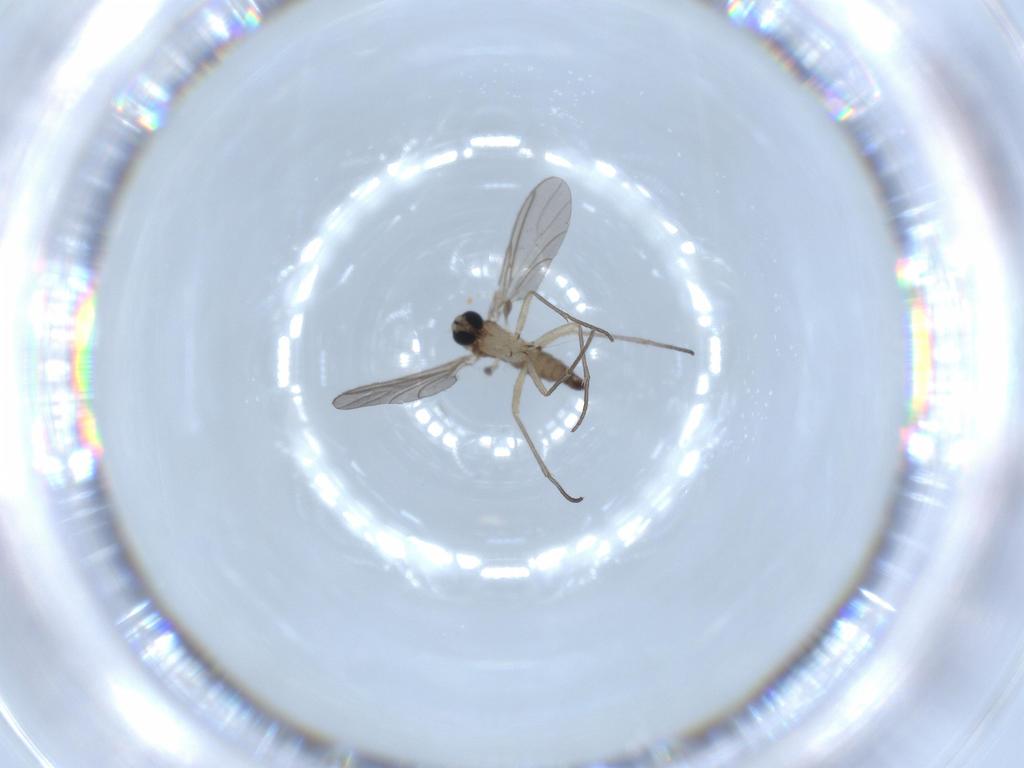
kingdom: Animalia
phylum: Arthropoda
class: Insecta
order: Diptera
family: Sciaridae
